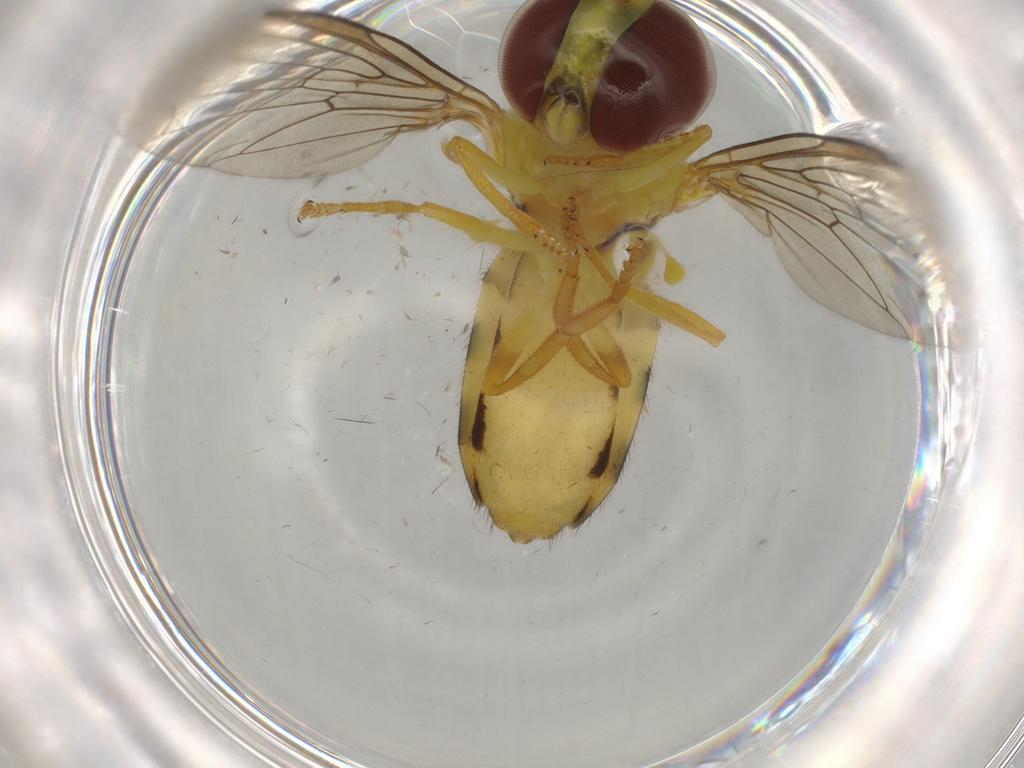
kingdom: Animalia
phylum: Arthropoda
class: Insecta
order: Diptera
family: Syrphidae
